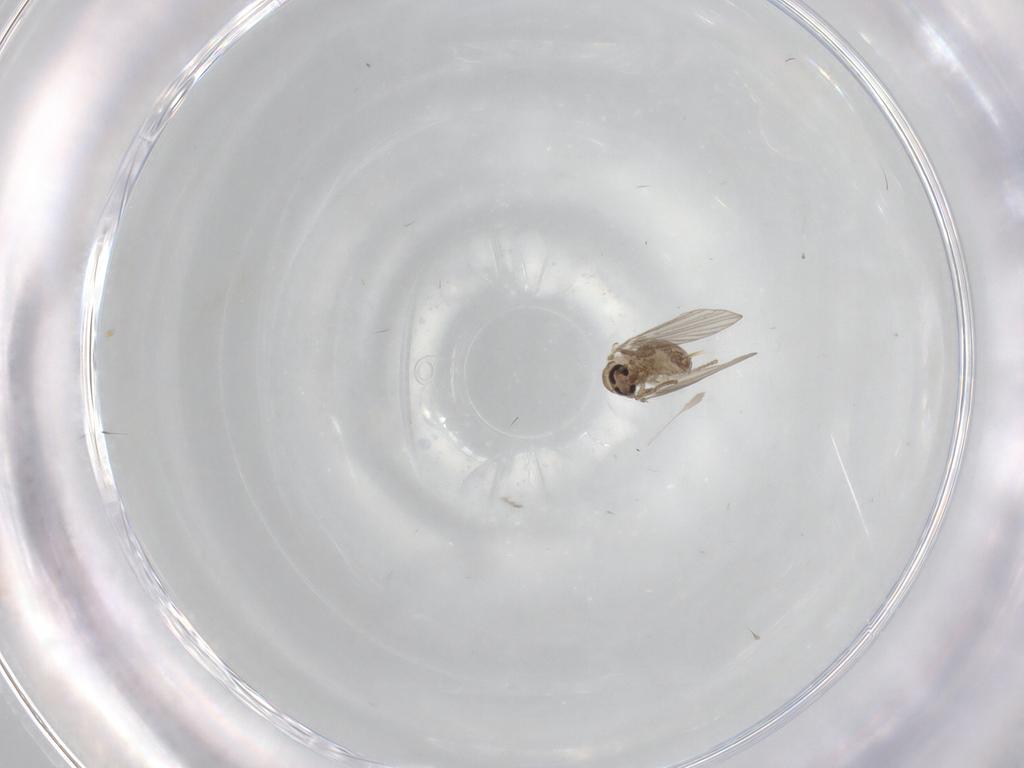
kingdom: Animalia
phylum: Arthropoda
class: Insecta
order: Diptera
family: Psychodidae
